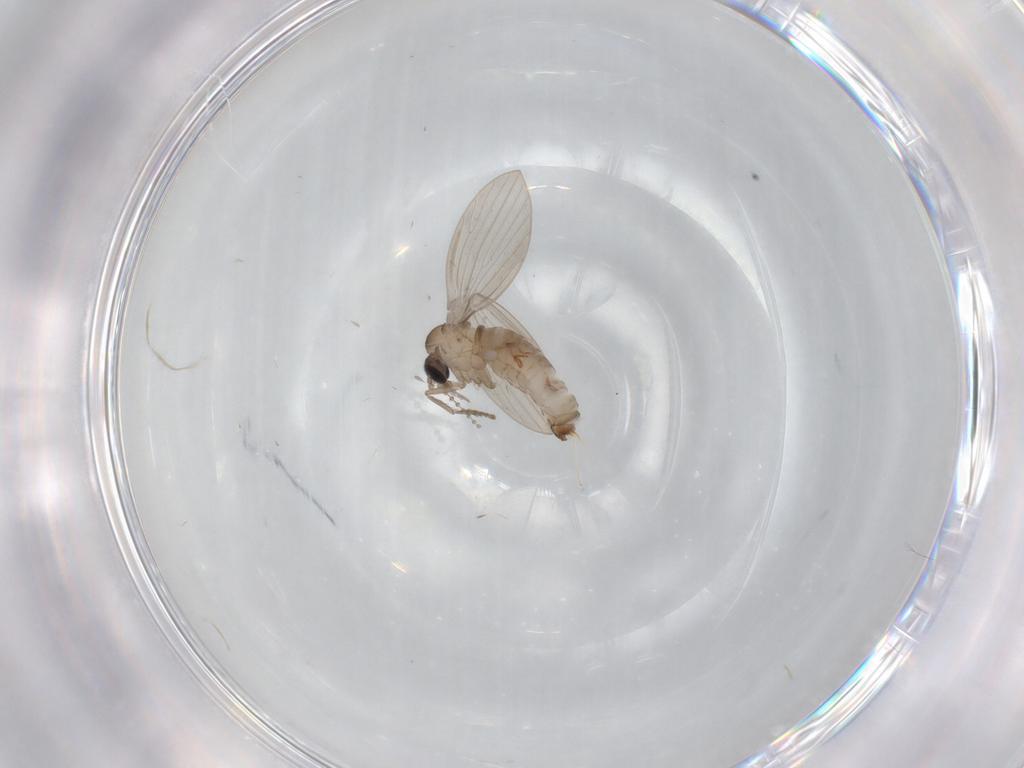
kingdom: Animalia
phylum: Arthropoda
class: Insecta
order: Diptera
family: Psychodidae
